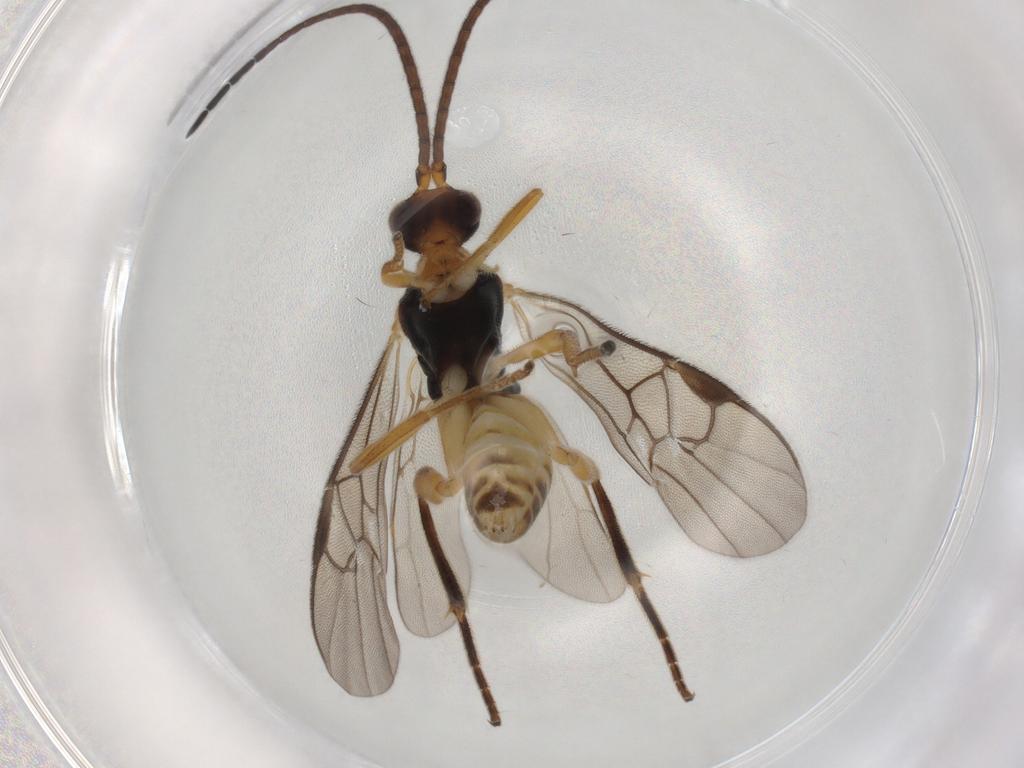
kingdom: Animalia
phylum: Arthropoda
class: Insecta
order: Hymenoptera
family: Braconidae
